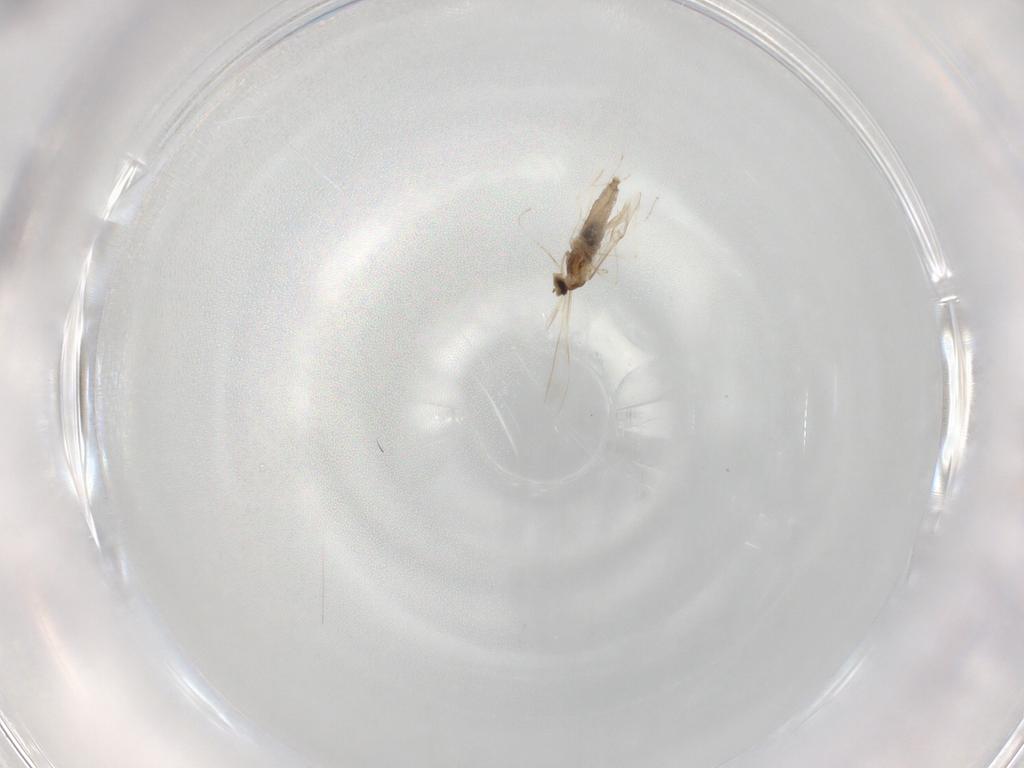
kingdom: Animalia
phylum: Arthropoda
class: Insecta
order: Diptera
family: Cecidomyiidae
